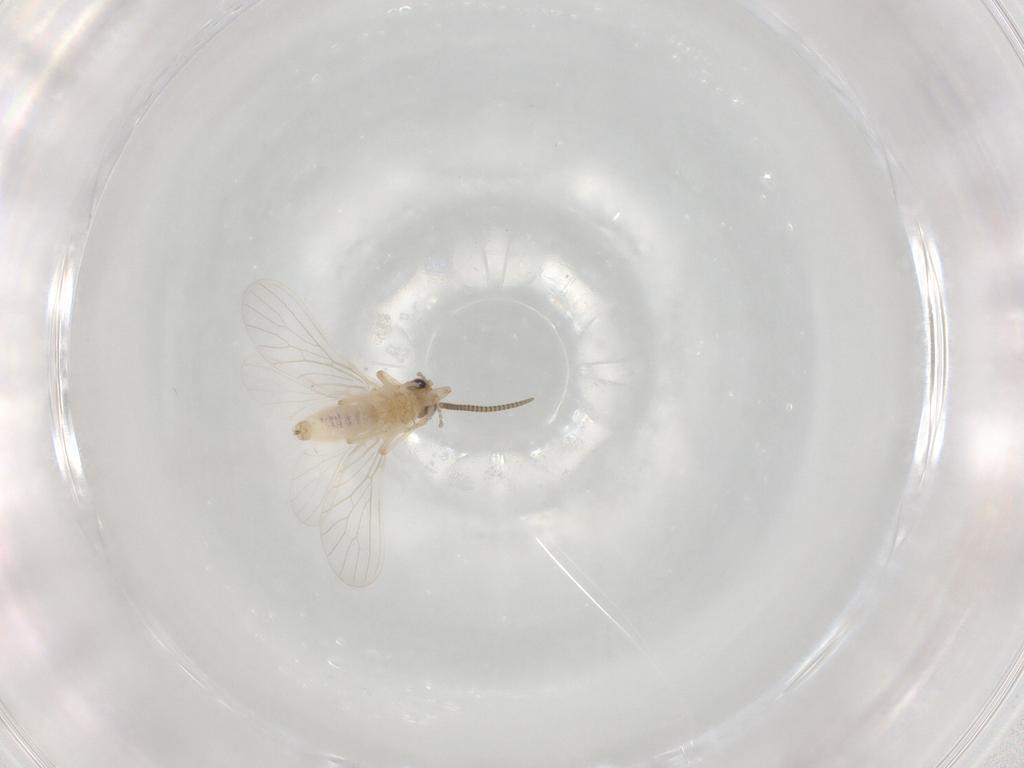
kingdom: Animalia
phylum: Arthropoda
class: Insecta
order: Neuroptera
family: Coniopterygidae
